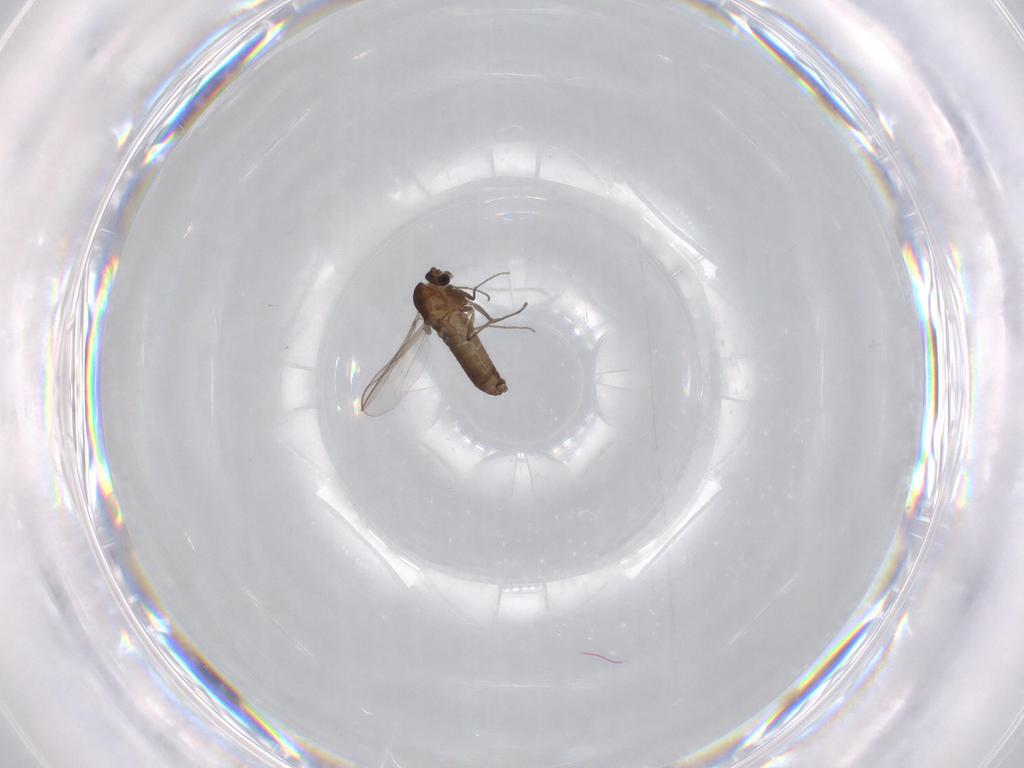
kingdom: Animalia
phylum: Arthropoda
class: Insecta
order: Diptera
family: Chironomidae
